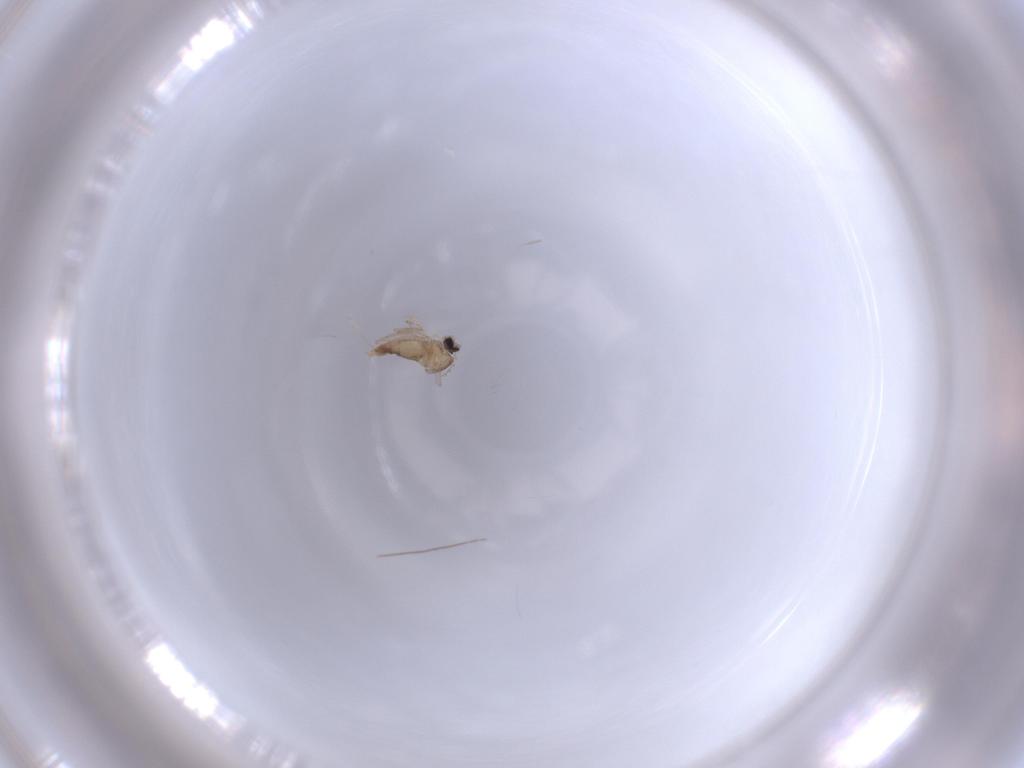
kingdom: Animalia
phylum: Arthropoda
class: Insecta
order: Diptera
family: Cecidomyiidae
